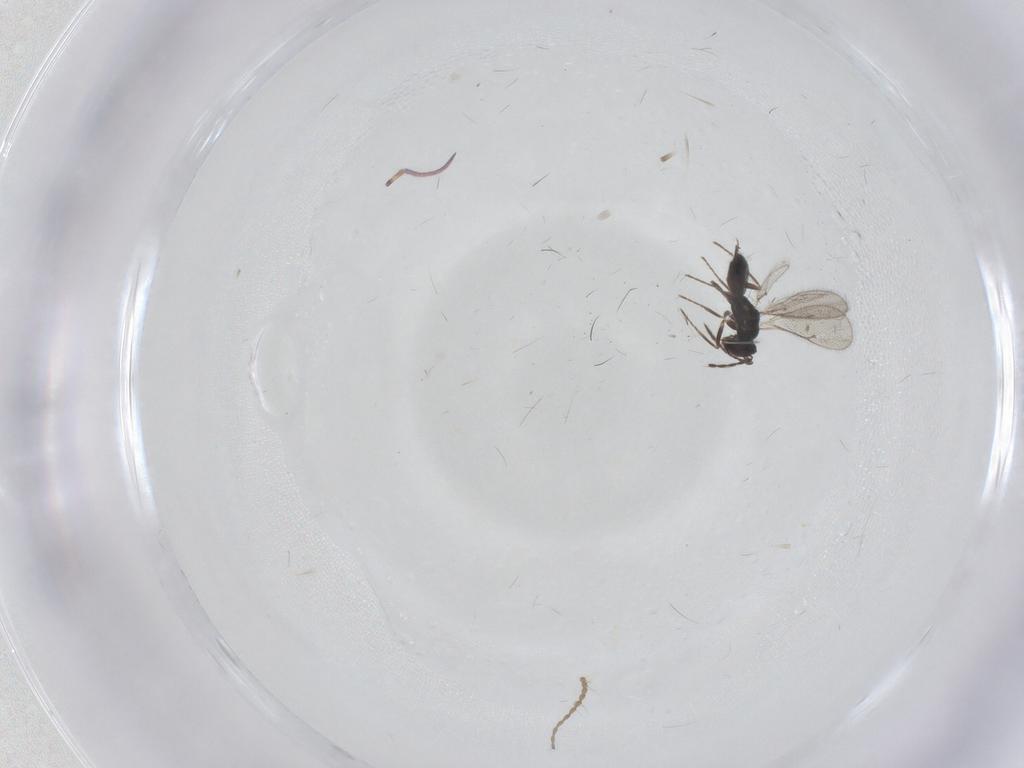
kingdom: Animalia
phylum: Arthropoda
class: Insecta
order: Hymenoptera
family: Eulophidae
